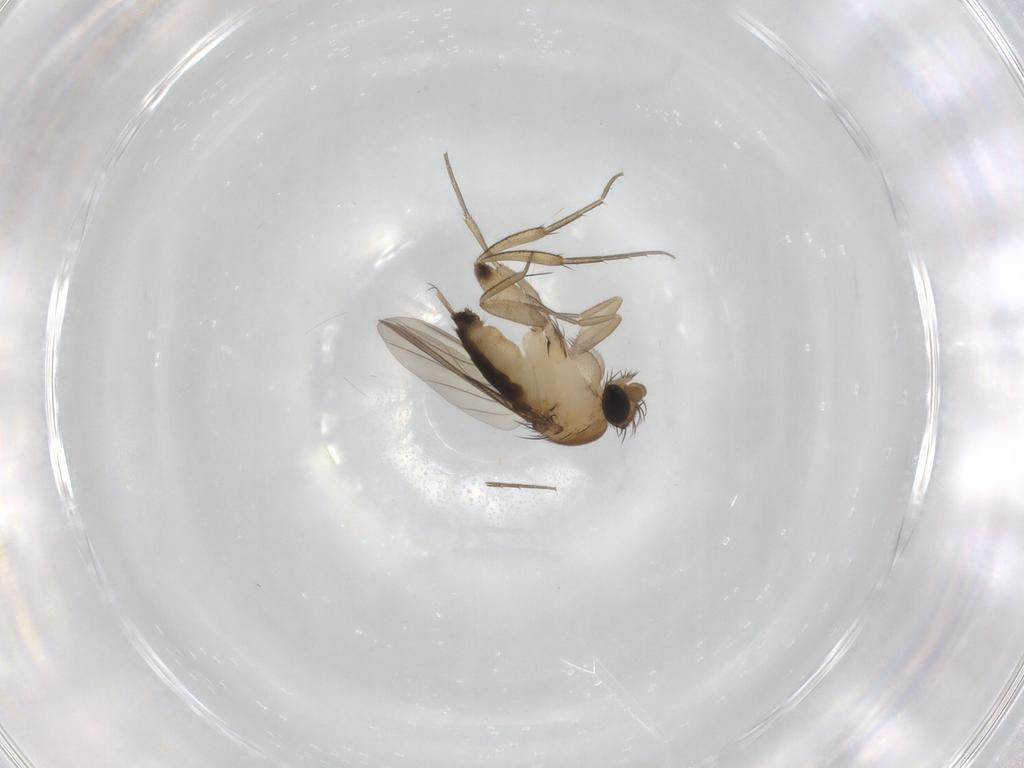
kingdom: Animalia
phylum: Arthropoda
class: Insecta
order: Diptera
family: Phoridae
